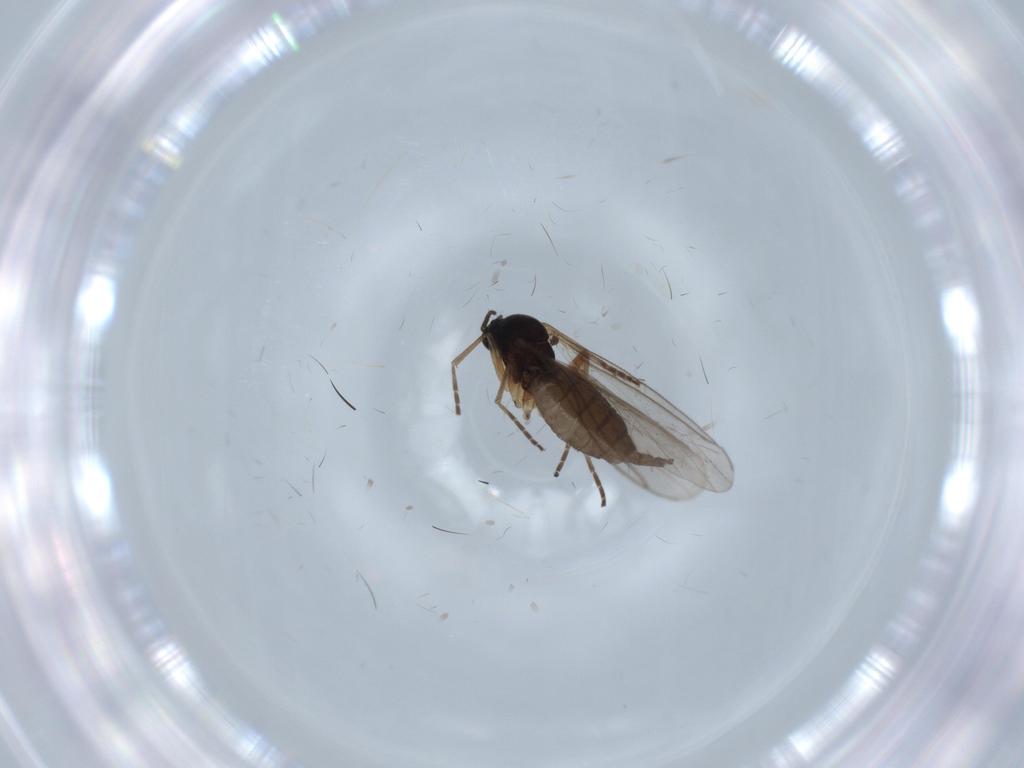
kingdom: Animalia
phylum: Arthropoda
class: Insecta
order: Diptera
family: Sciaridae
